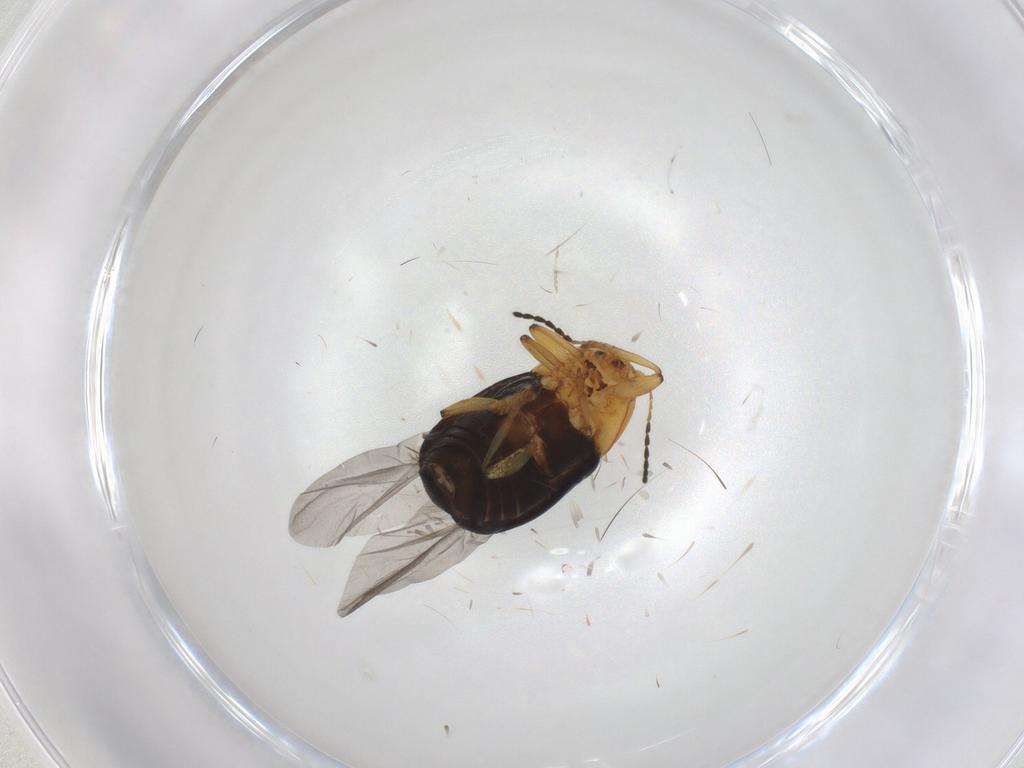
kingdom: Animalia
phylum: Arthropoda
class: Insecta
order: Coleoptera
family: Chrysomelidae
